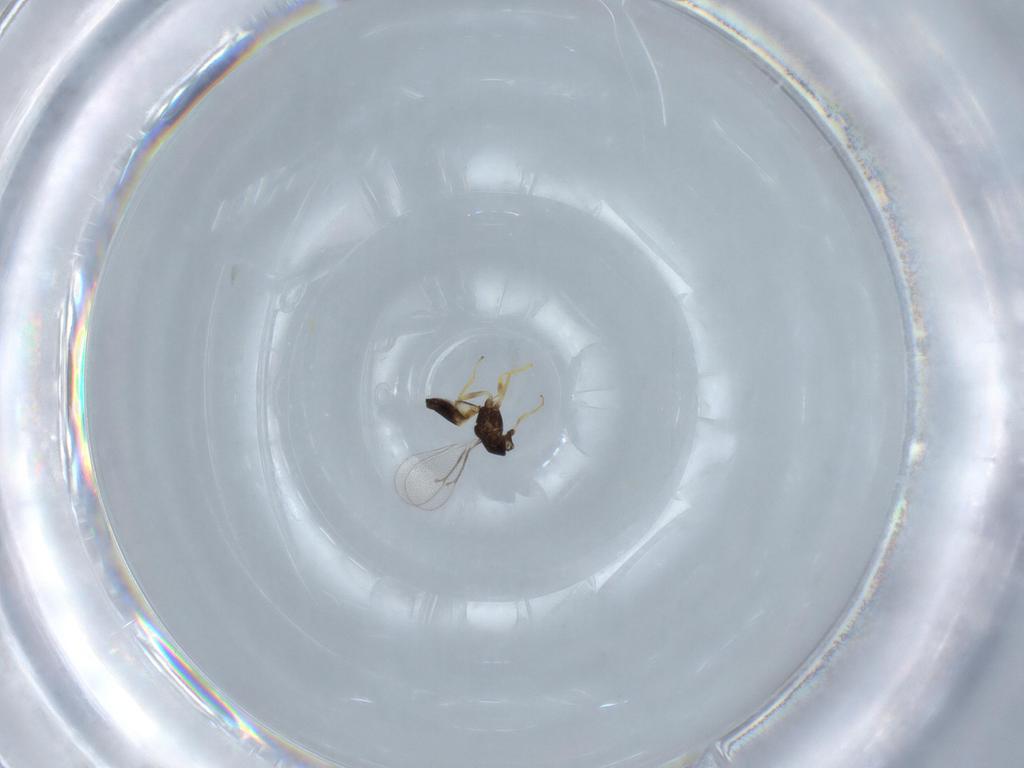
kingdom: Animalia
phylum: Arthropoda
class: Insecta
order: Hymenoptera
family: Eulophidae
